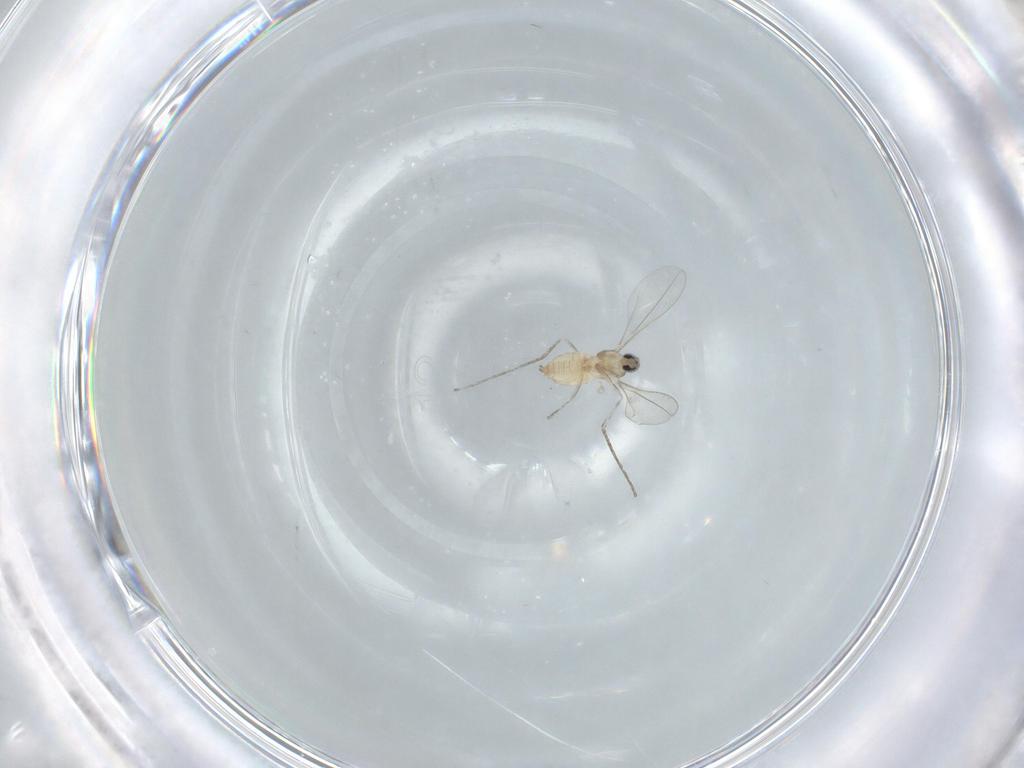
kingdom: Animalia
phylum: Arthropoda
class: Insecta
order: Diptera
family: Cecidomyiidae
